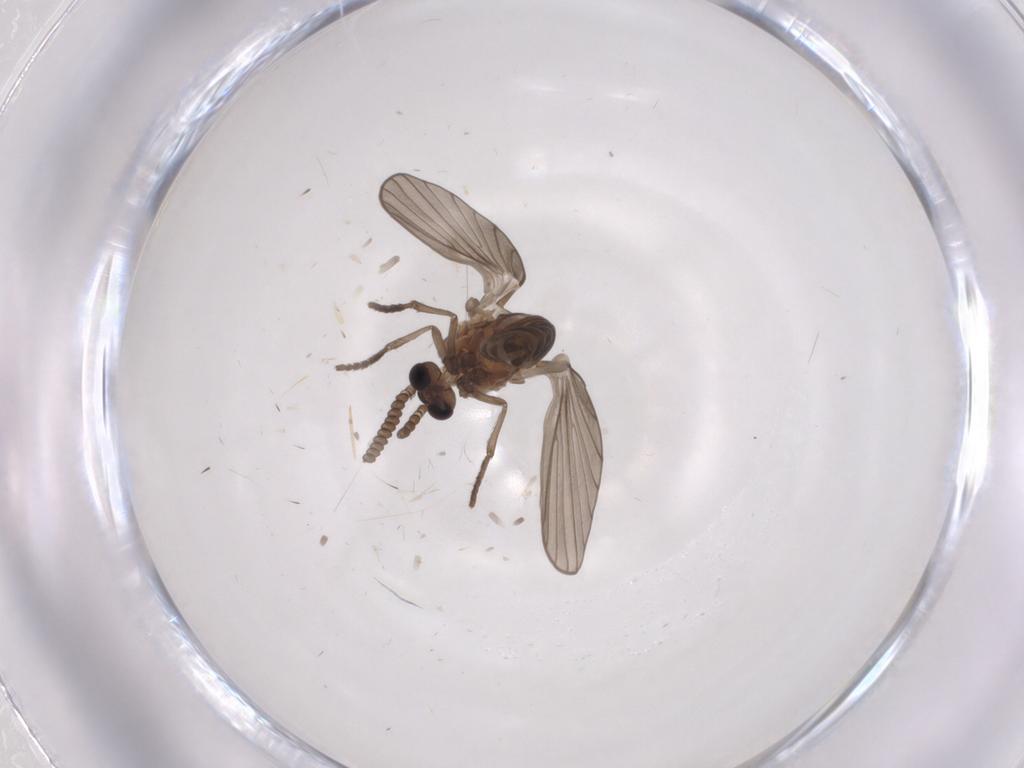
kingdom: Animalia
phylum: Arthropoda
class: Insecta
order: Diptera
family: Psychodidae
